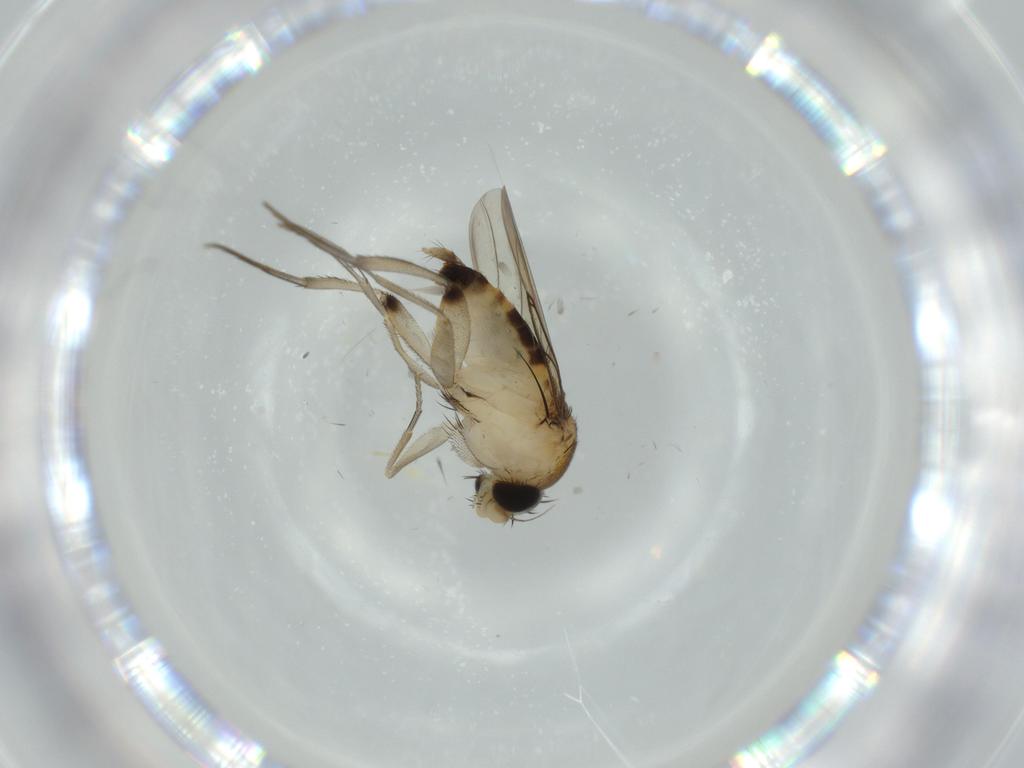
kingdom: Animalia
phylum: Arthropoda
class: Insecta
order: Diptera
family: Phoridae
